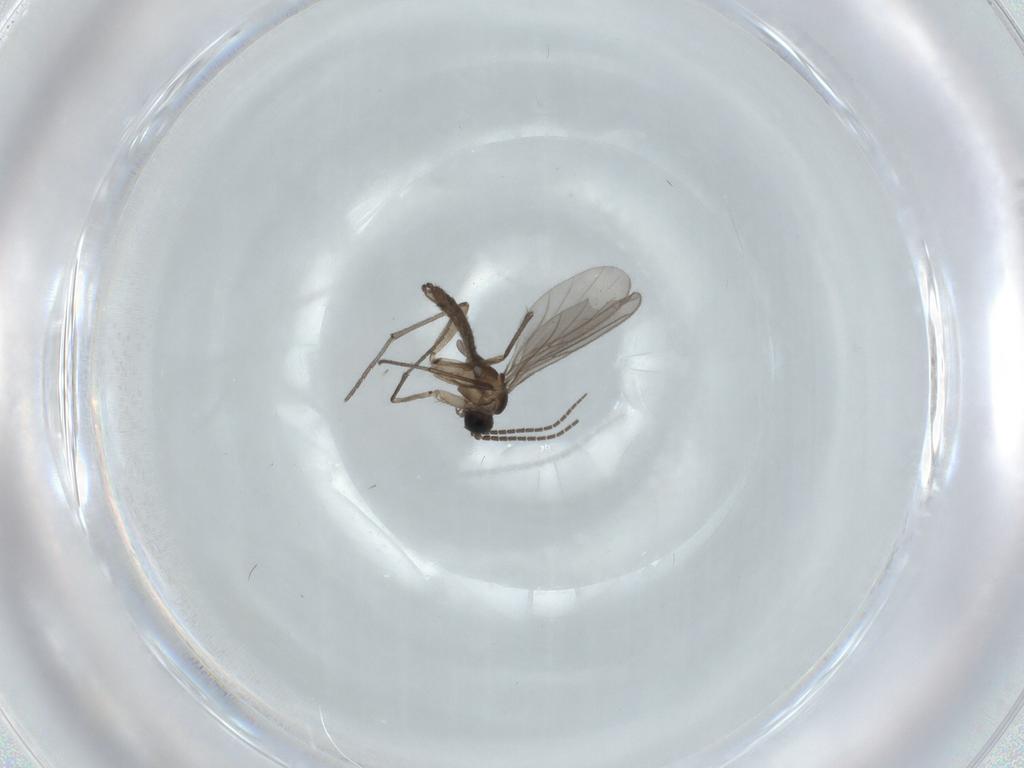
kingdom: Animalia
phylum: Arthropoda
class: Insecta
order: Diptera
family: Sciaridae
